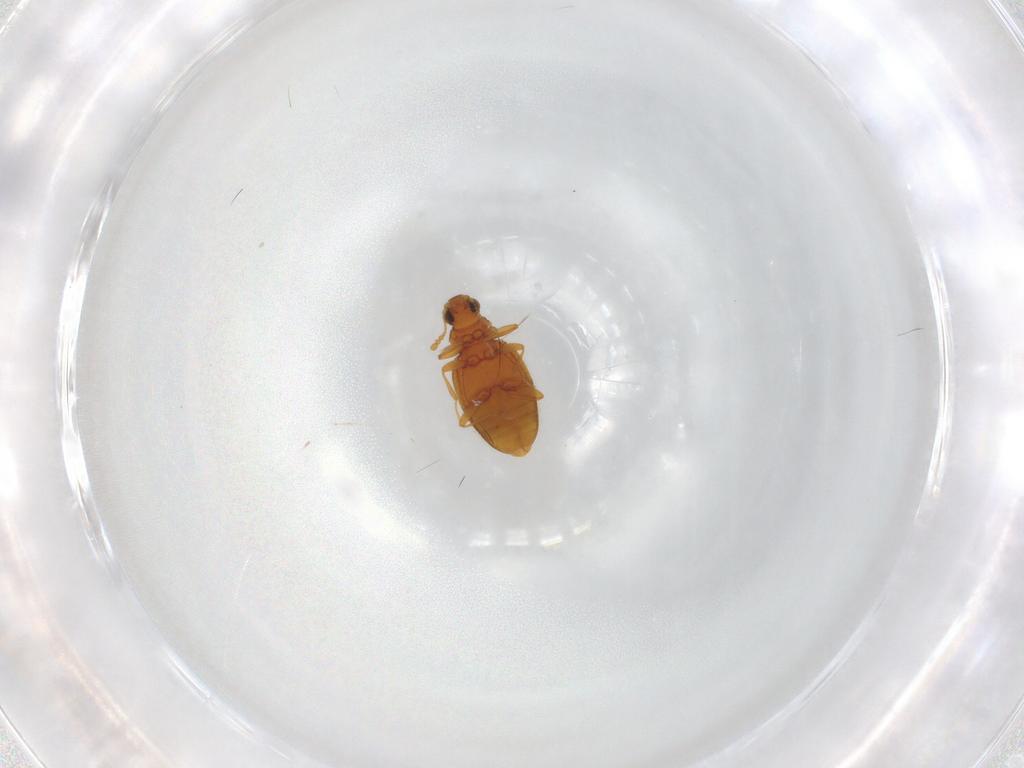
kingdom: Animalia
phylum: Arthropoda
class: Insecta
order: Coleoptera
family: Latridiidae
